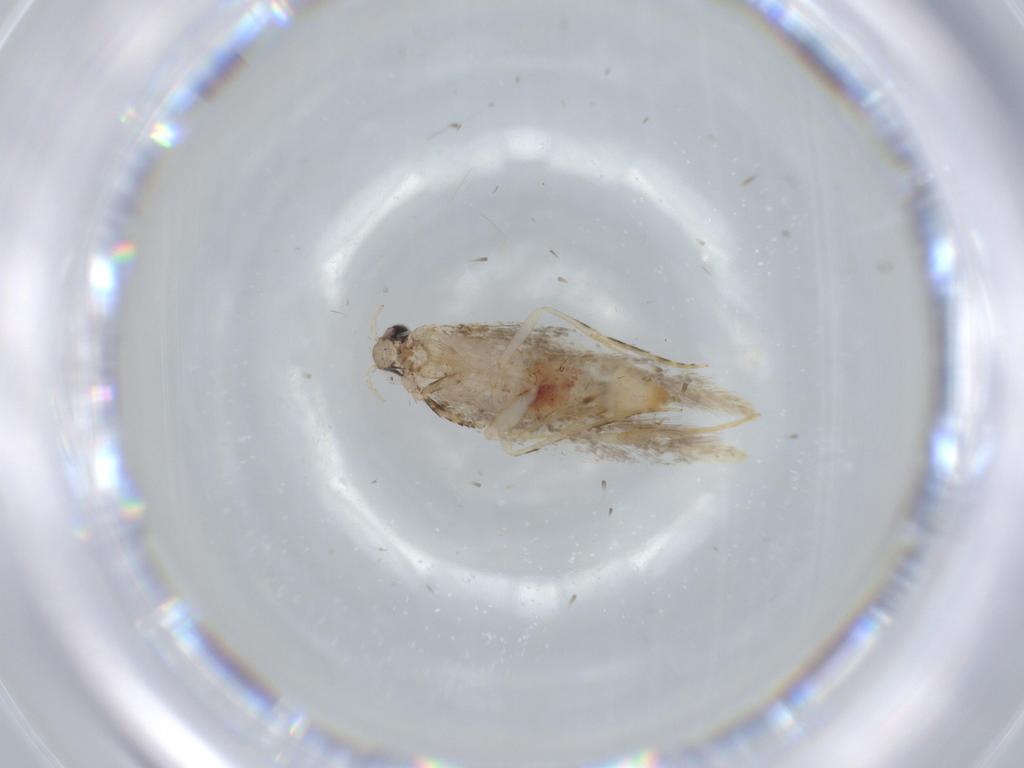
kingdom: Animalia
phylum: Arthropoda
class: Insecta
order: Lepidoptera
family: Tineidae
